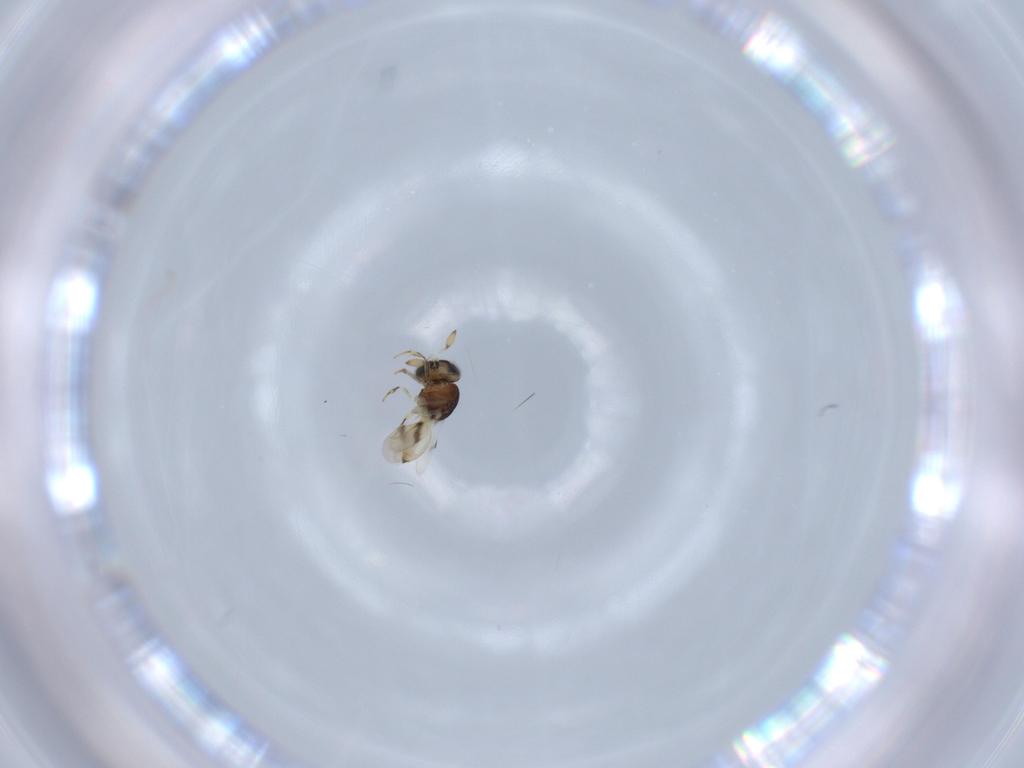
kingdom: Animalia
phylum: Arthropoda
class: Insecta
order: Hymenoptera
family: Scelionidae
